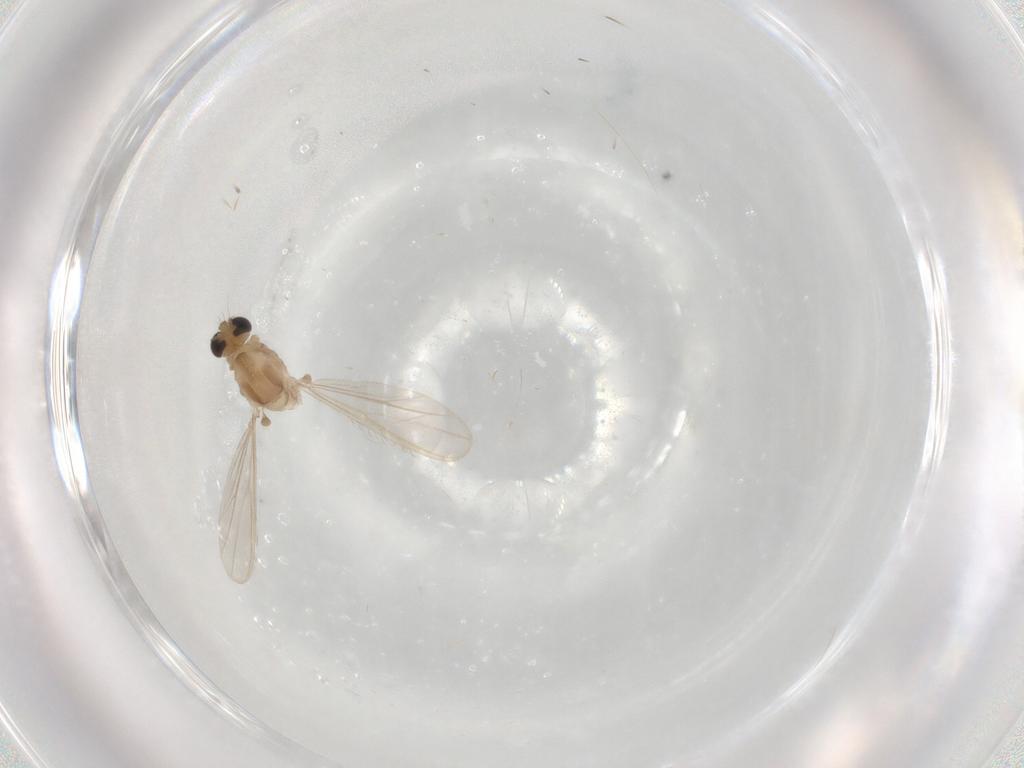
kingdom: Animalia
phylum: Arthropoda
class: Insecta
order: Diptera
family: Chironomidae
